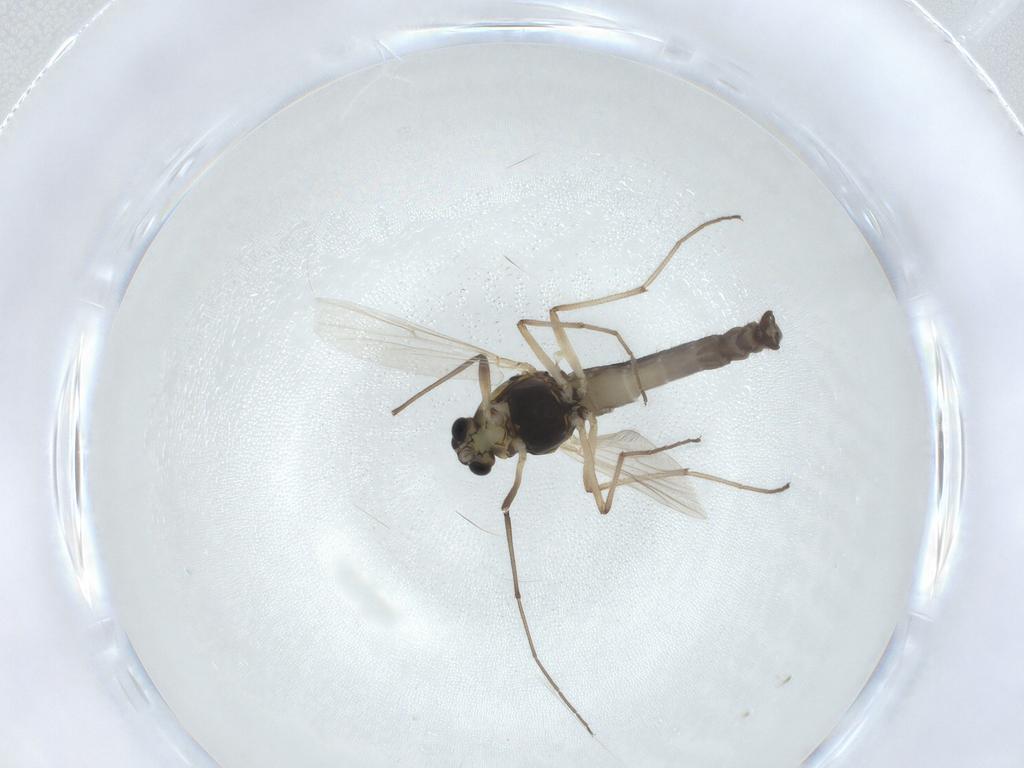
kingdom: Animalia
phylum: Arthropoda
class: Insecta
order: Diptera
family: Chironomidae
